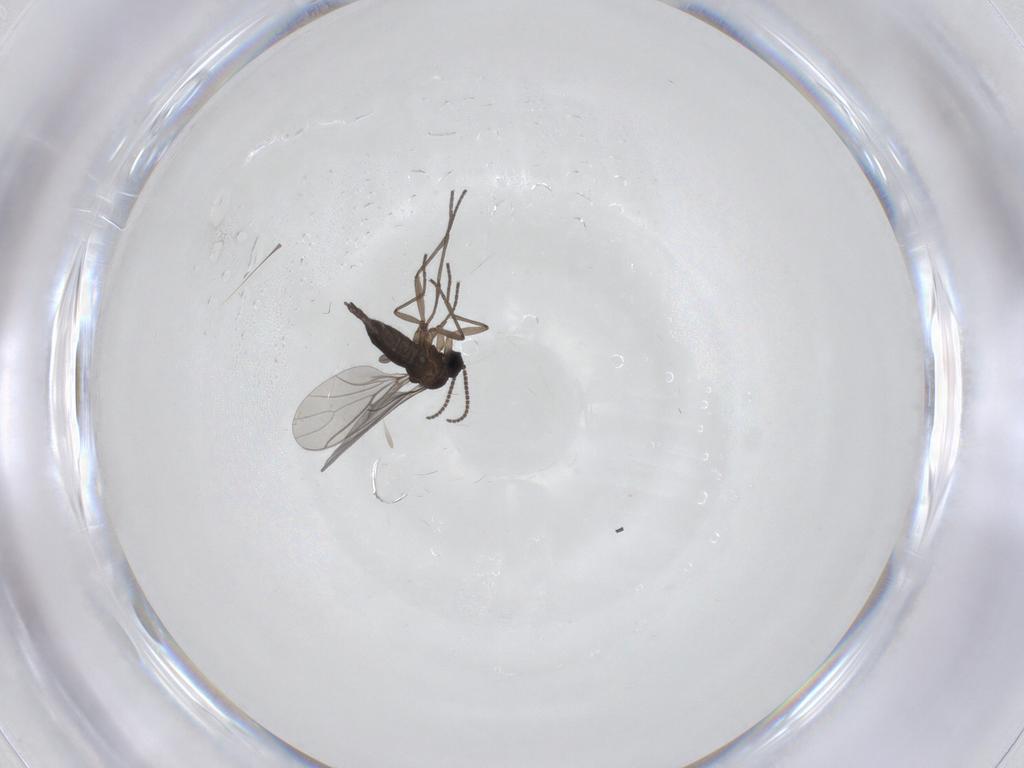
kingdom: Animalia
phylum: Arthropoda
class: Insecta
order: Diptera
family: Sciaridae
